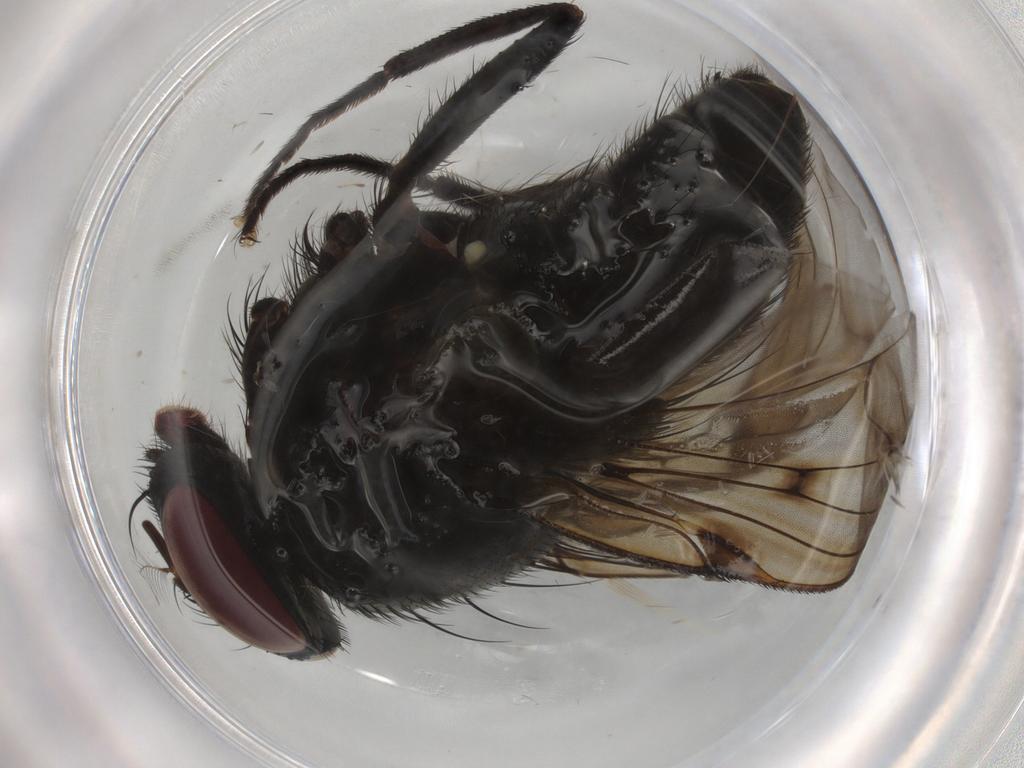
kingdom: Animalia
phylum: Arthropoda
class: Insecta
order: Diptera
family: Muscidae
